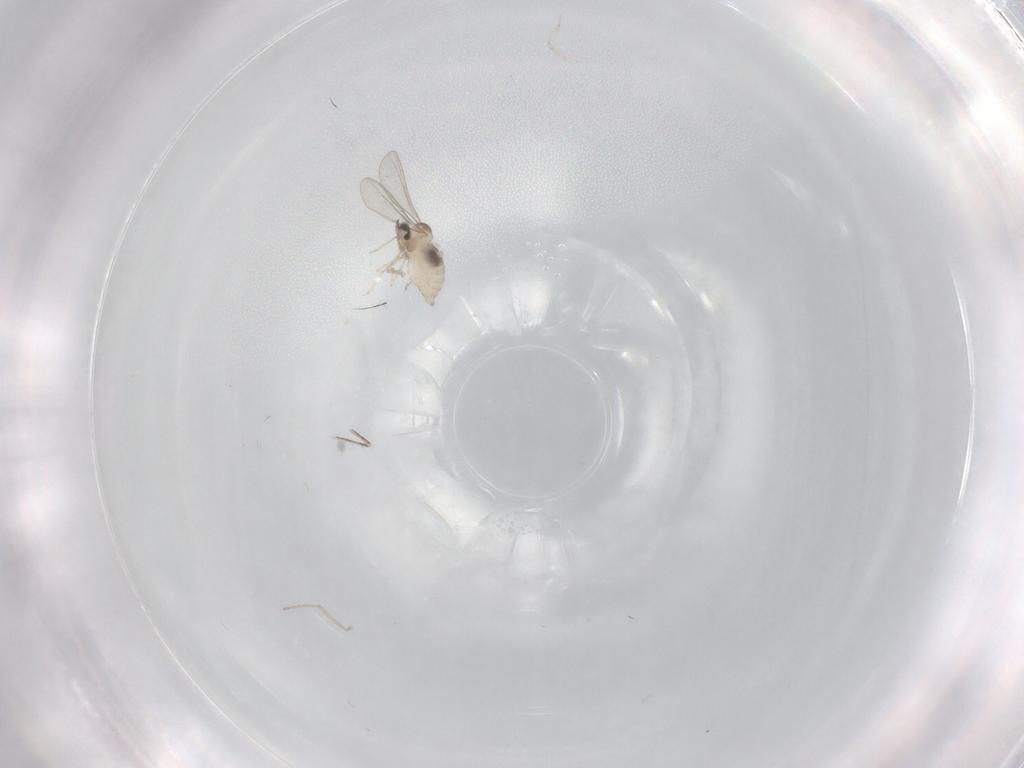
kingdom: Animalia
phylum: Arthropoda
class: Insecta
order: Diptera
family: Cecidomyiidae
